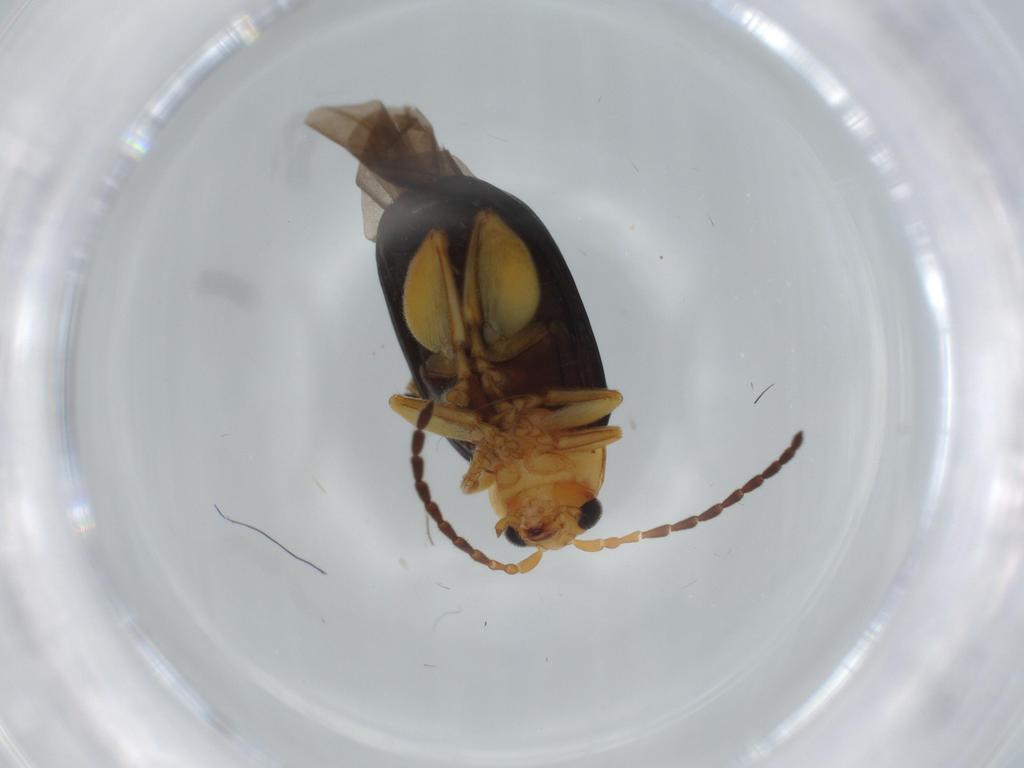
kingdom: Animalia
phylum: Arthropoda
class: Insecta
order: Coleoptera
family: Chrysomelidae
